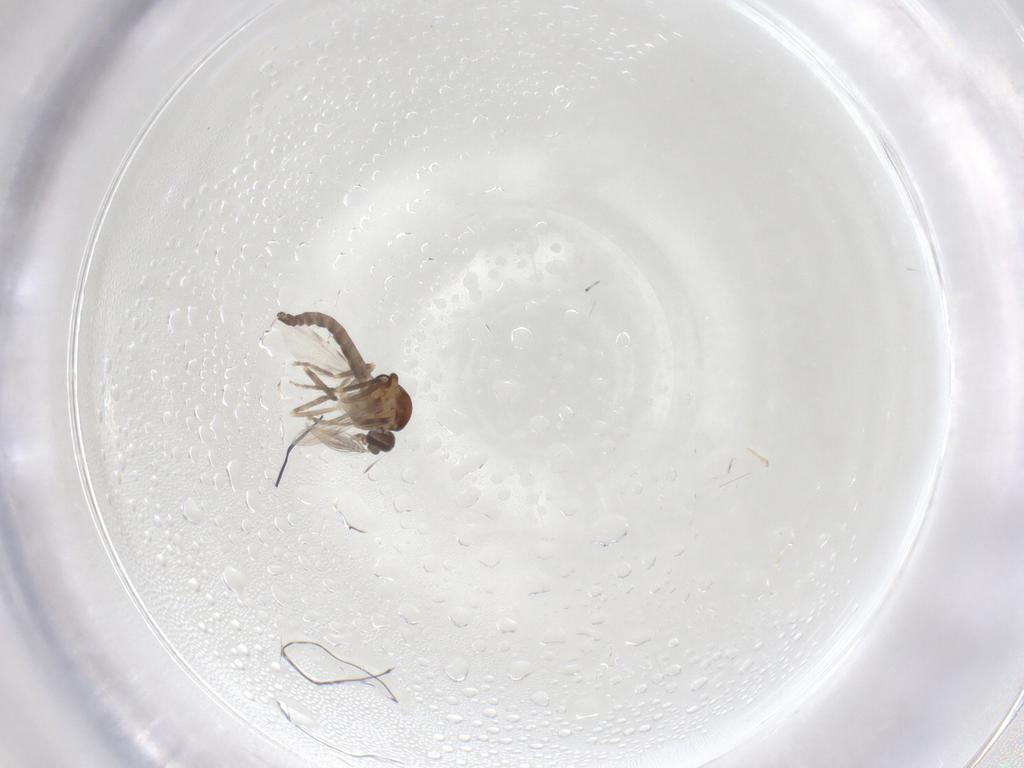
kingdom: Animalia
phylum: Arthropoda
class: Insecta
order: Diptera
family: Ceratopogonidae
